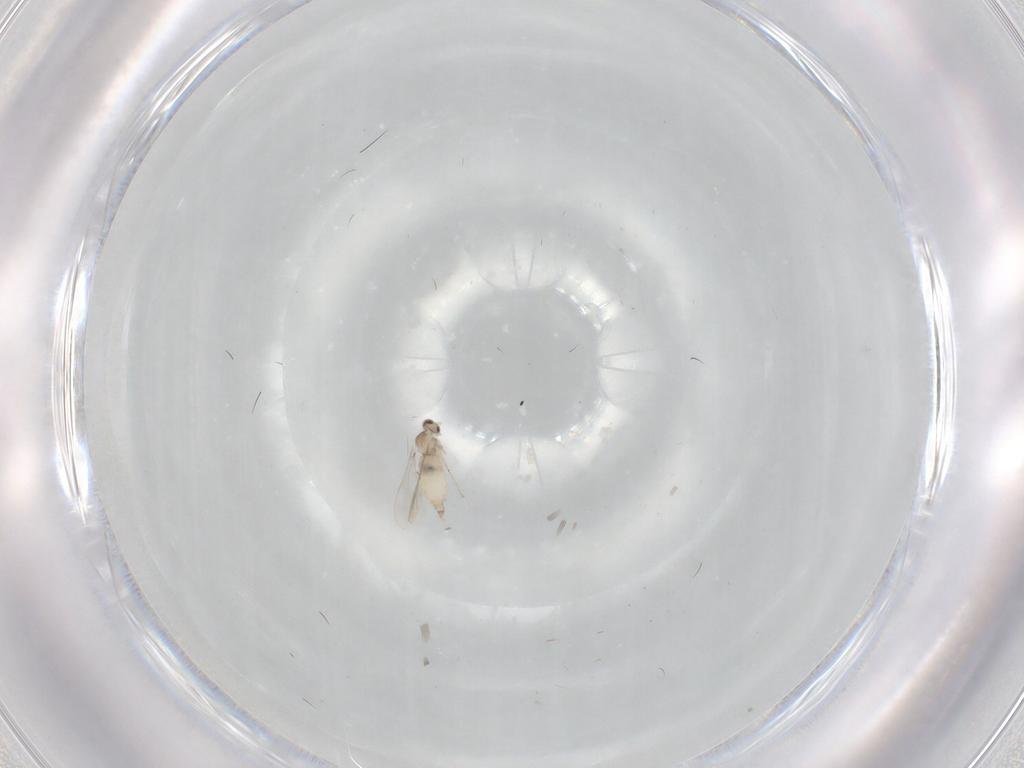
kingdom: Animalia
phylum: Arthropoda
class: Insecta
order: Diptera
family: Cecidomyiidae
